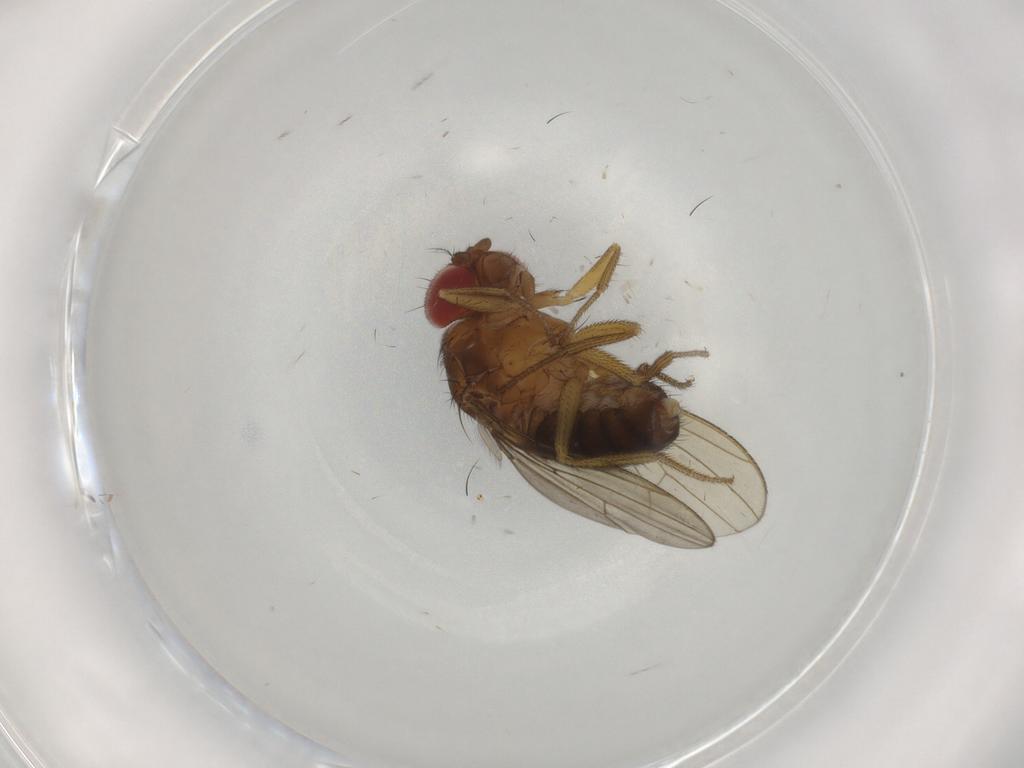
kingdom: Animalia
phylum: Arthropoda
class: Insecta
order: Diptera
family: Drosophilidae
